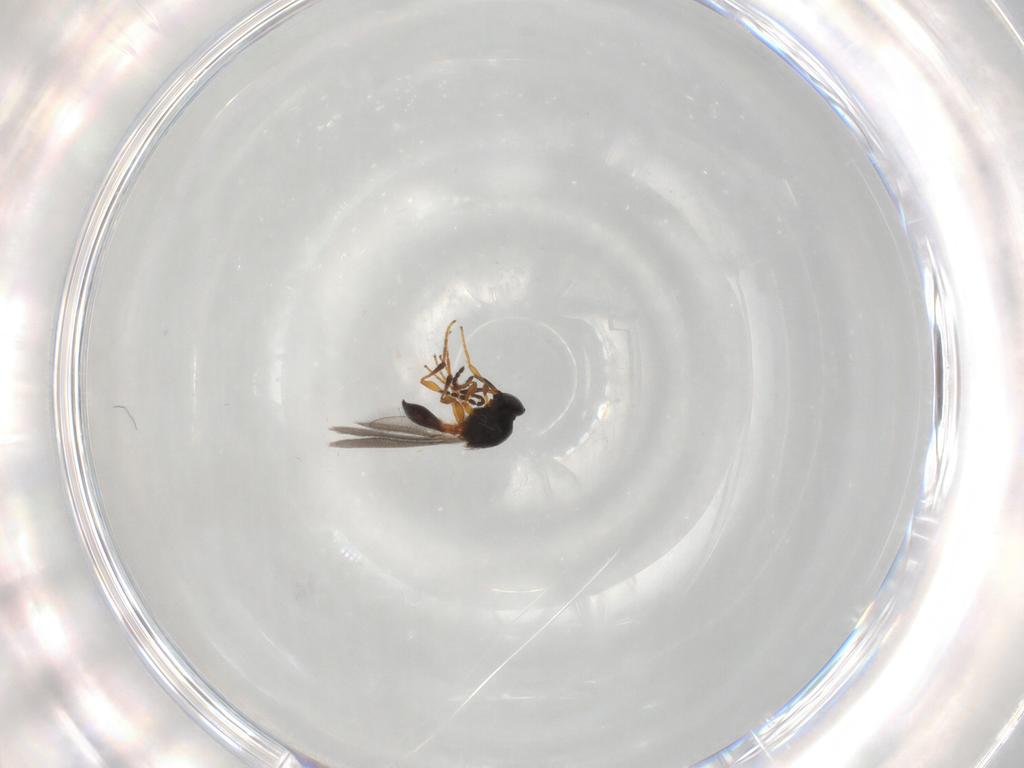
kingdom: Animalia
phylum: Arthropoda
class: Insecta
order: Hymenoptera
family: Platygastridae
